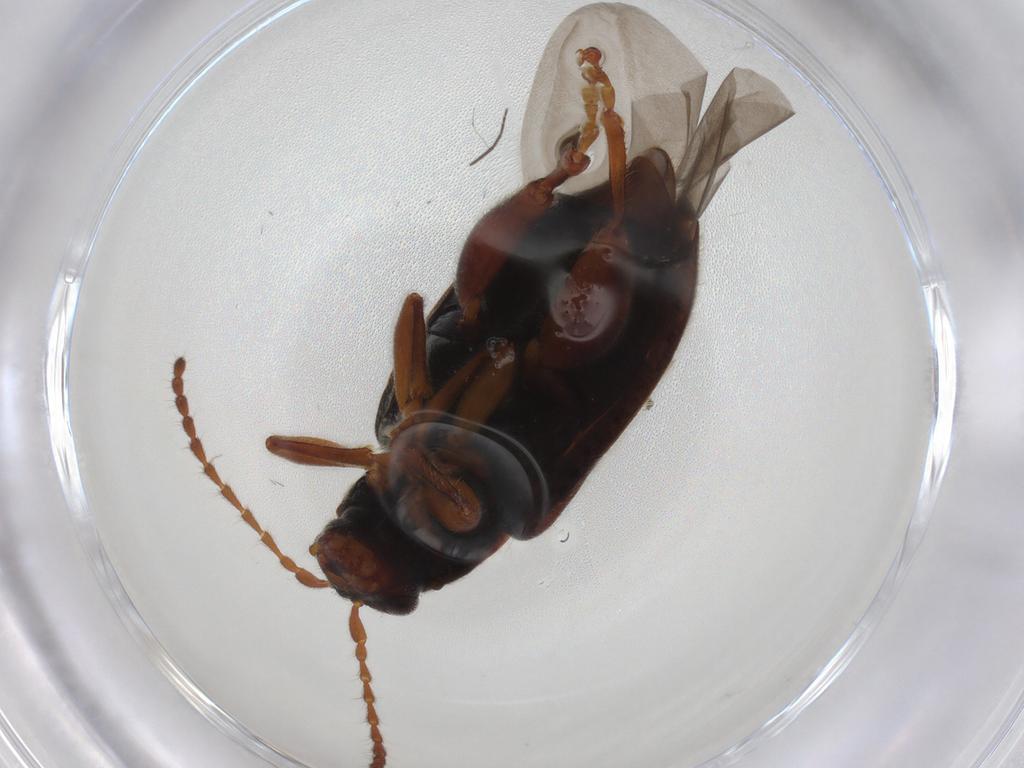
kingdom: Animalia
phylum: Arthropoda
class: Insecta
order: Coleoptera
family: Chrysomelidae
